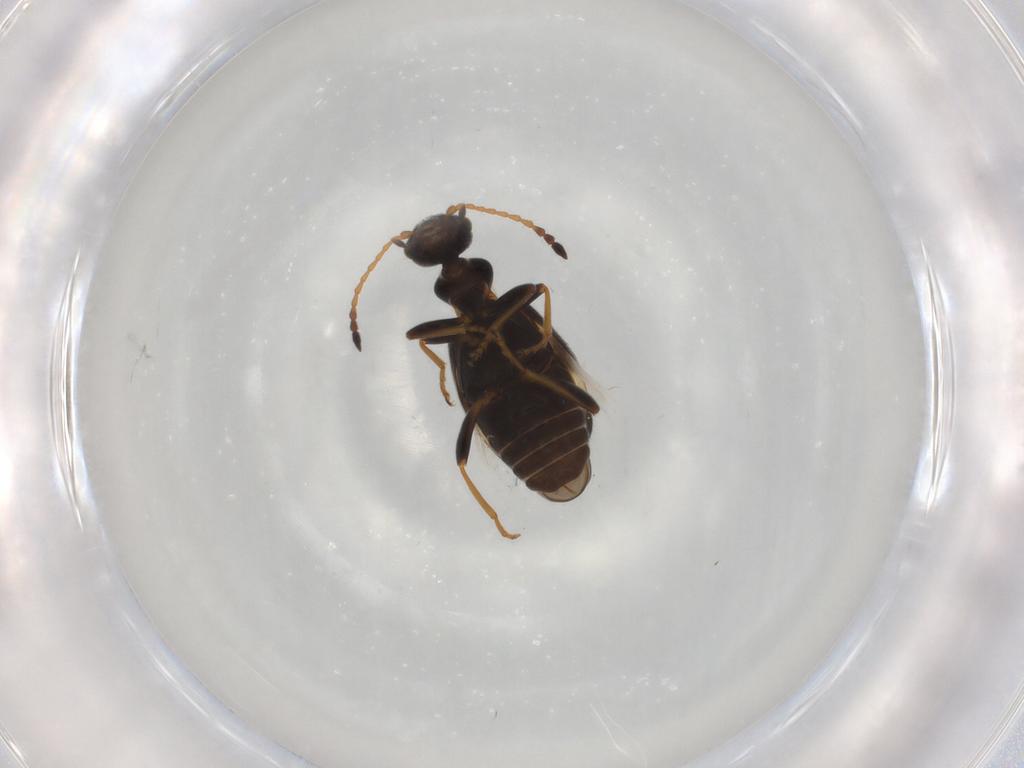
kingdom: Animalia
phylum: Arthropoda
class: Insecta
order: Coleoptera
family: Anthicidae
